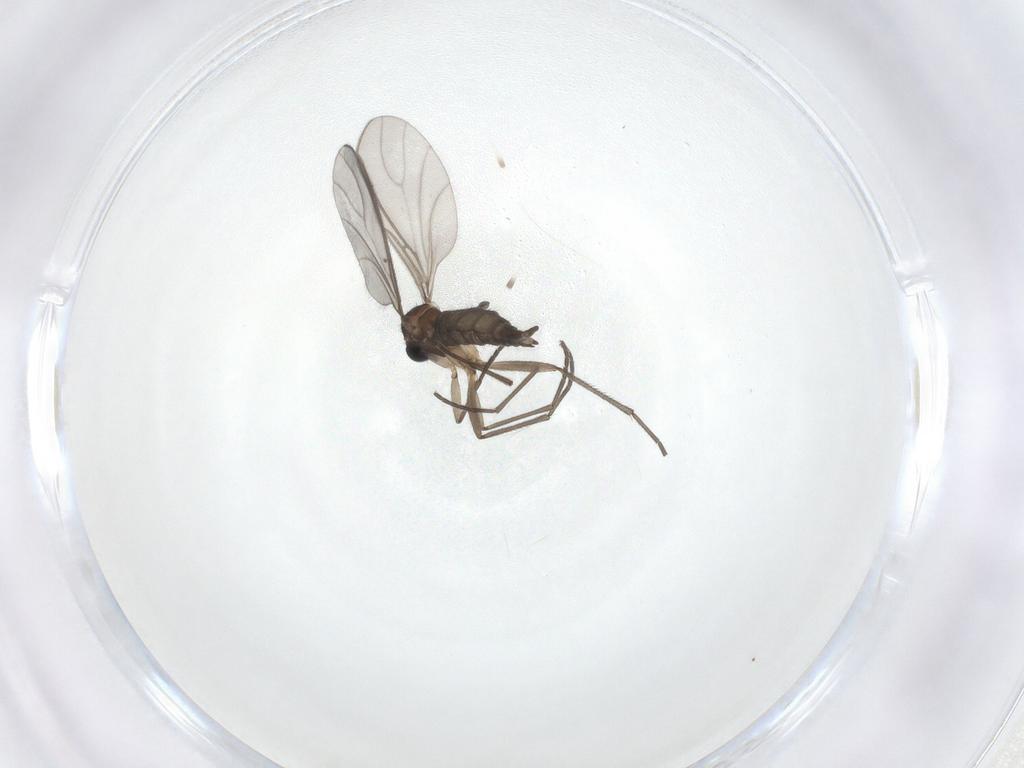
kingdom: Animalia
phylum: Arthropoda
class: Insecta
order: Diptera
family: Sciaridae
